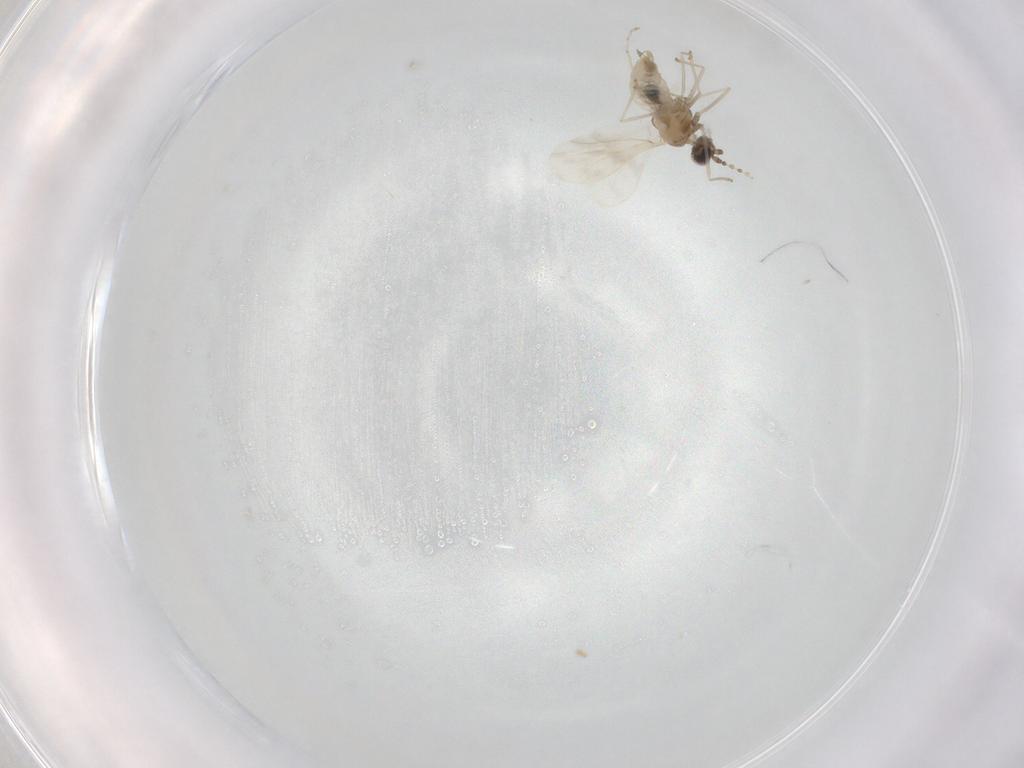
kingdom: Animalia
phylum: Arthropoda
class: Insecta
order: Diptera
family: Cecidomyiidae
